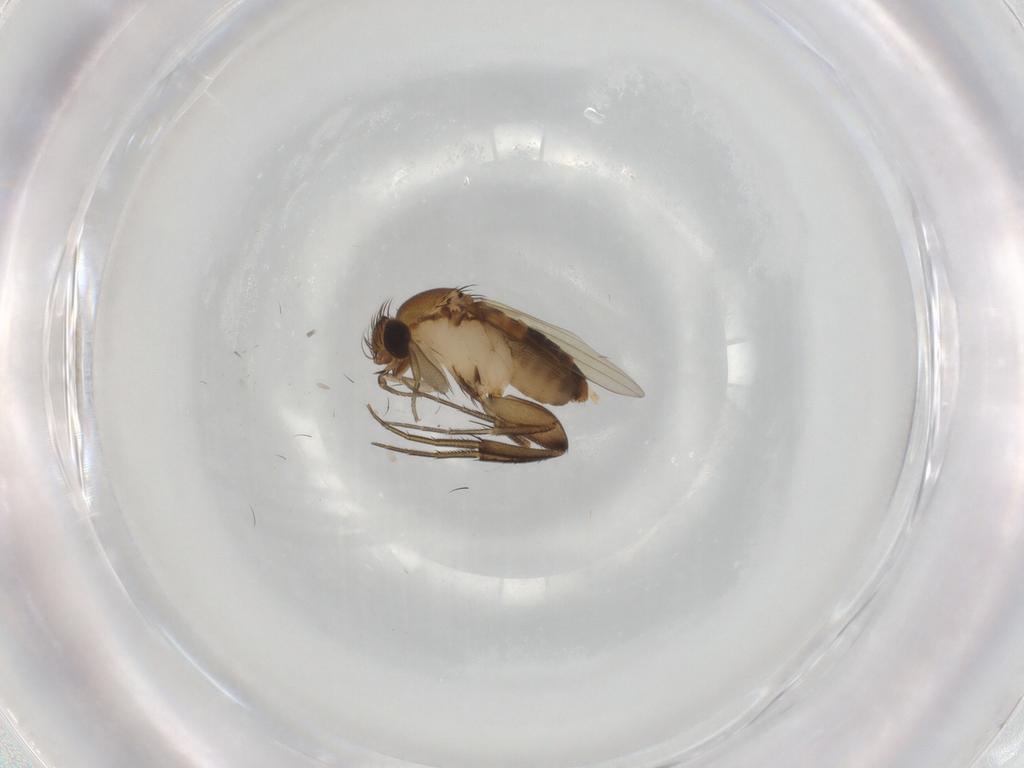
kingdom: Animalia
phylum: Arthropoda
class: Insecta
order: Diptera
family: Phoridae
